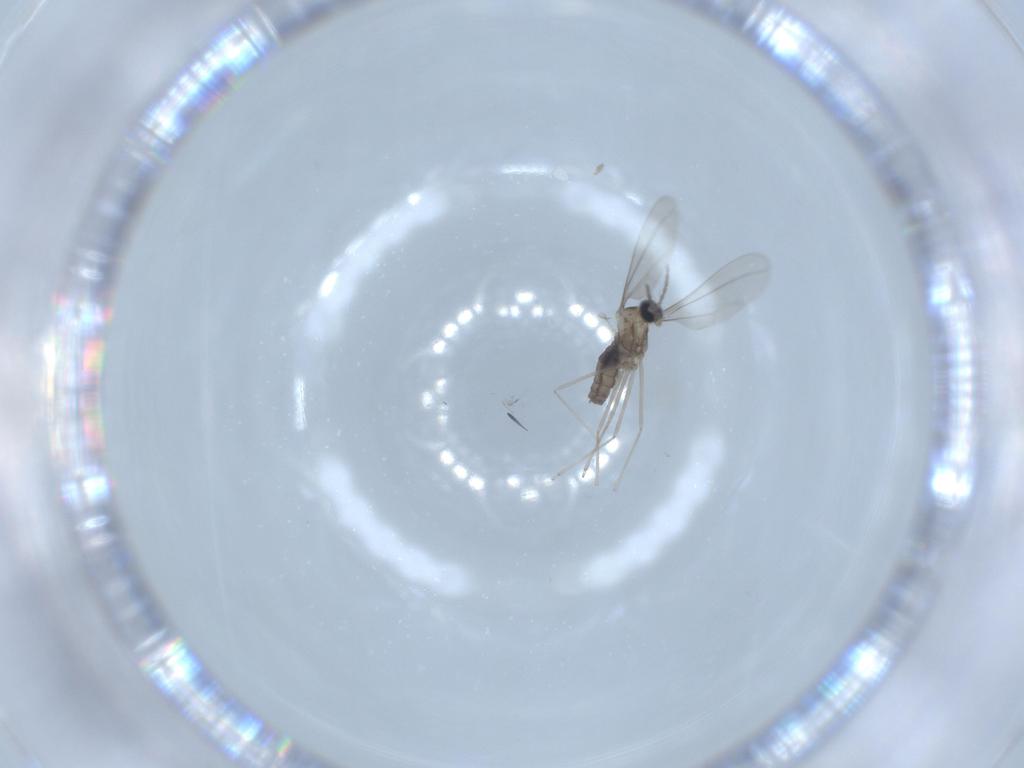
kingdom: Animalia
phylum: Arthropoda
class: Insecta
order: Diptera
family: Cecidomyiidae
